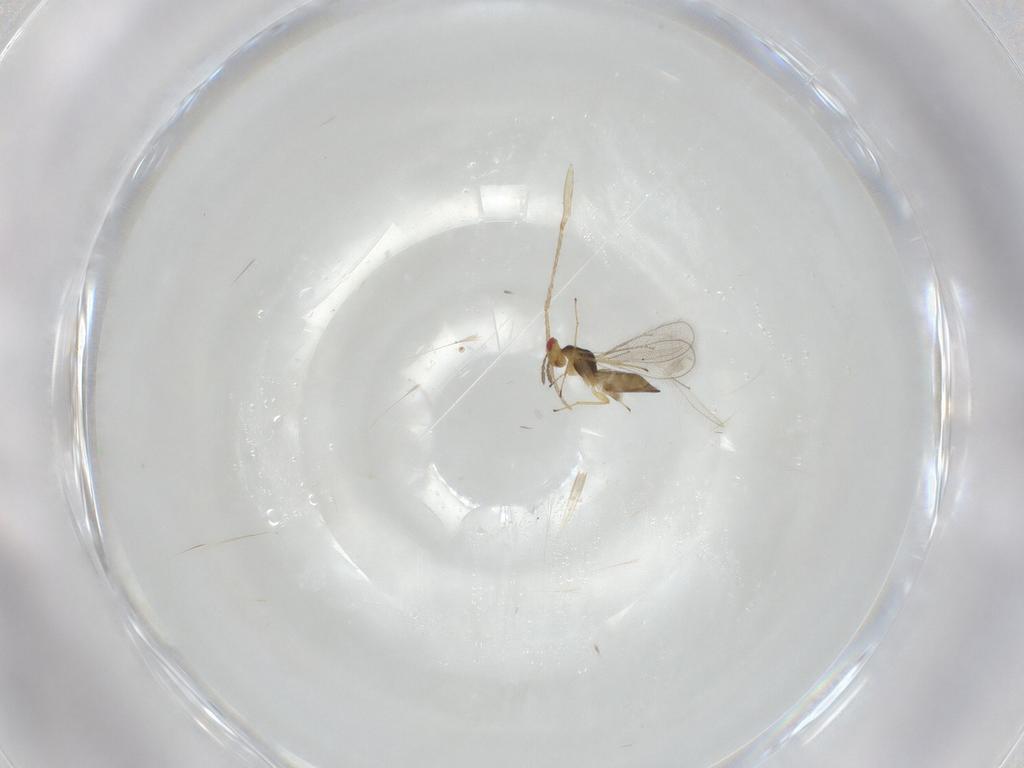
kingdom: Animalia
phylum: Arthropoda
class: Insecta
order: Hymenoptera
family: Eulophidae
